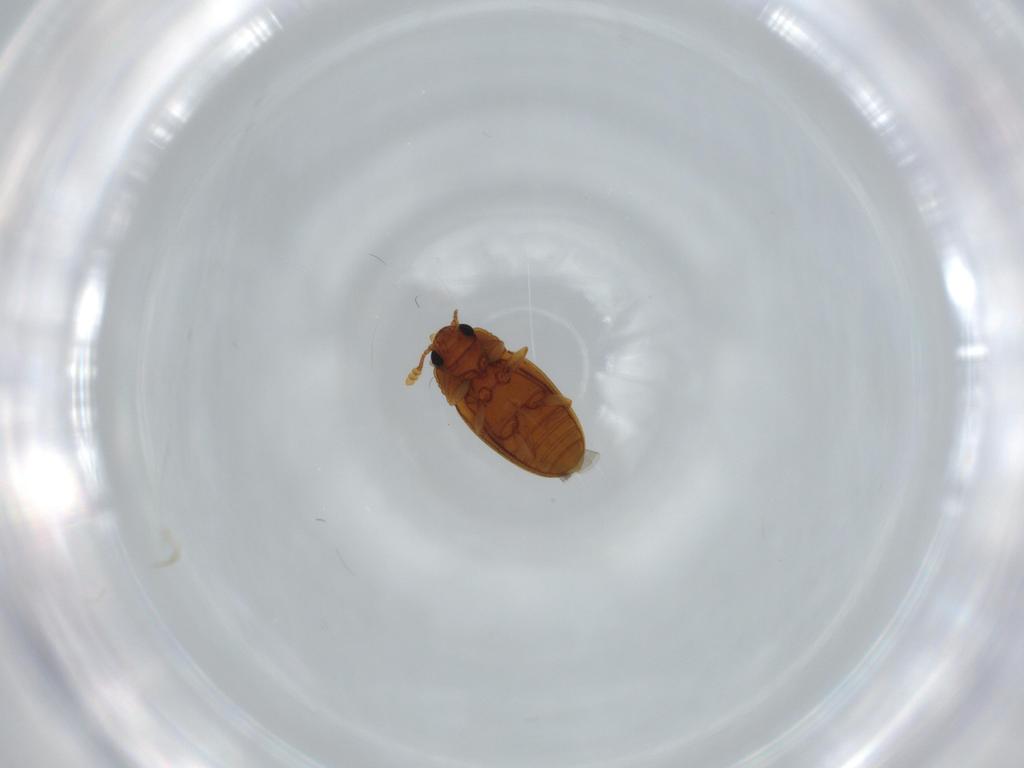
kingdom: Animalia
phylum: Arthropoda
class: Insecta
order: Coleoptera
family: Erotylidae
